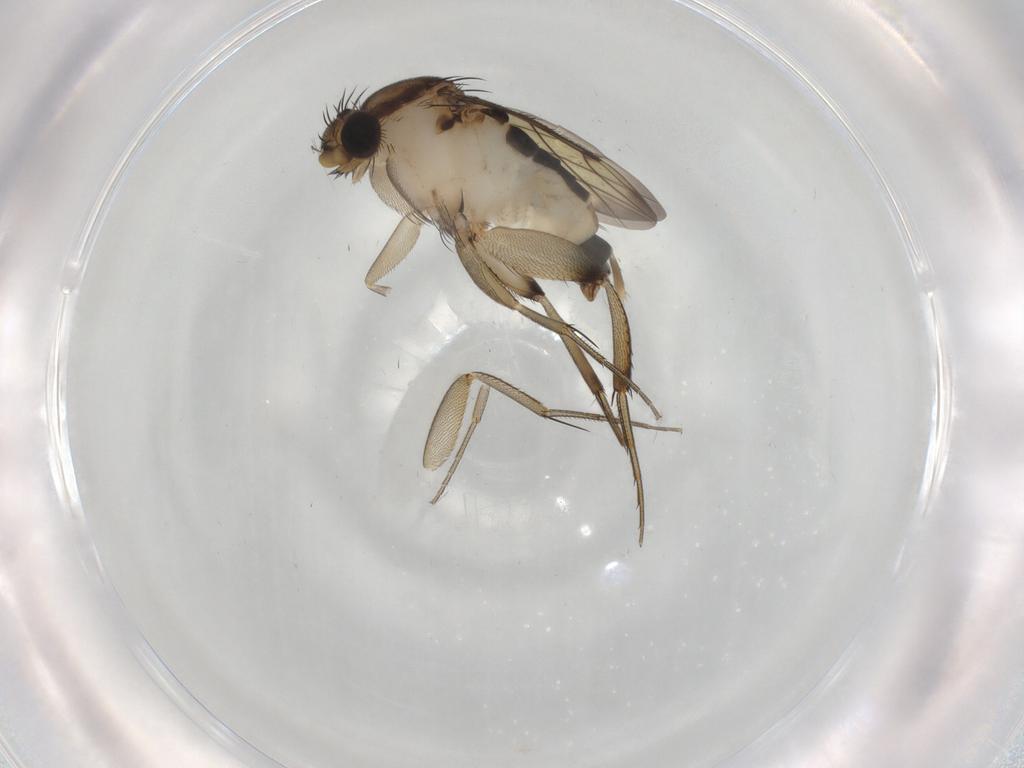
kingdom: Animalia
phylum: Arthropoda
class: Insecta
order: Diptera
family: Phoridae
